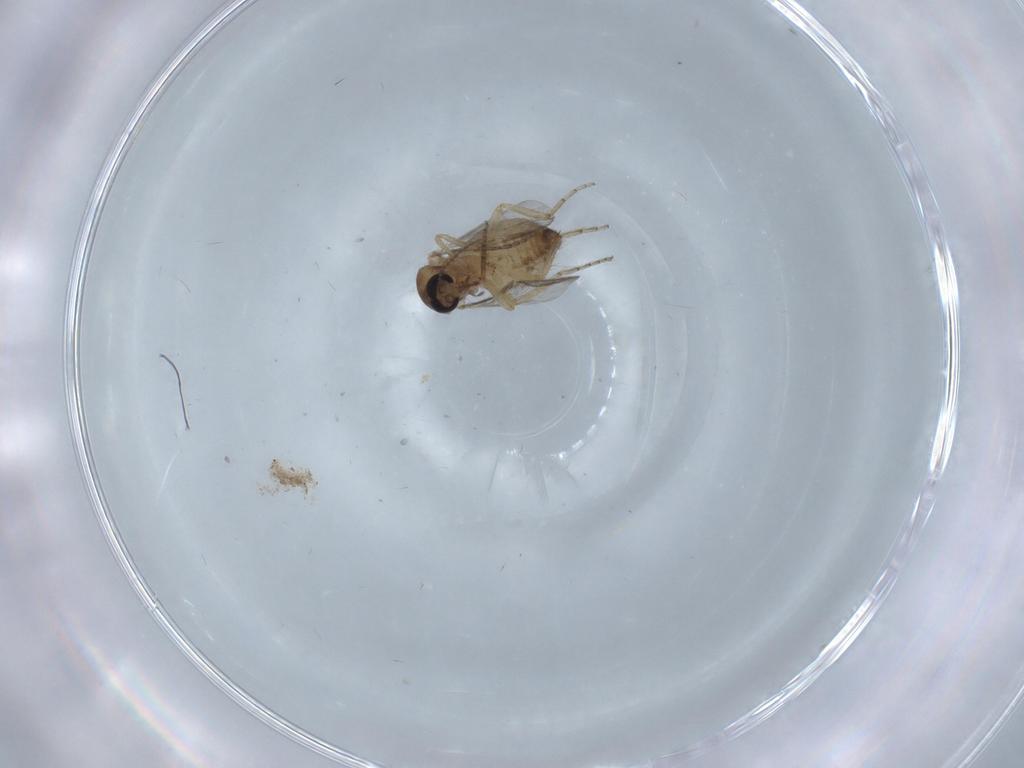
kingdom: Animalia
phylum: Arthropoda
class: Insecta
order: Diptera
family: Ceratopogonidae
